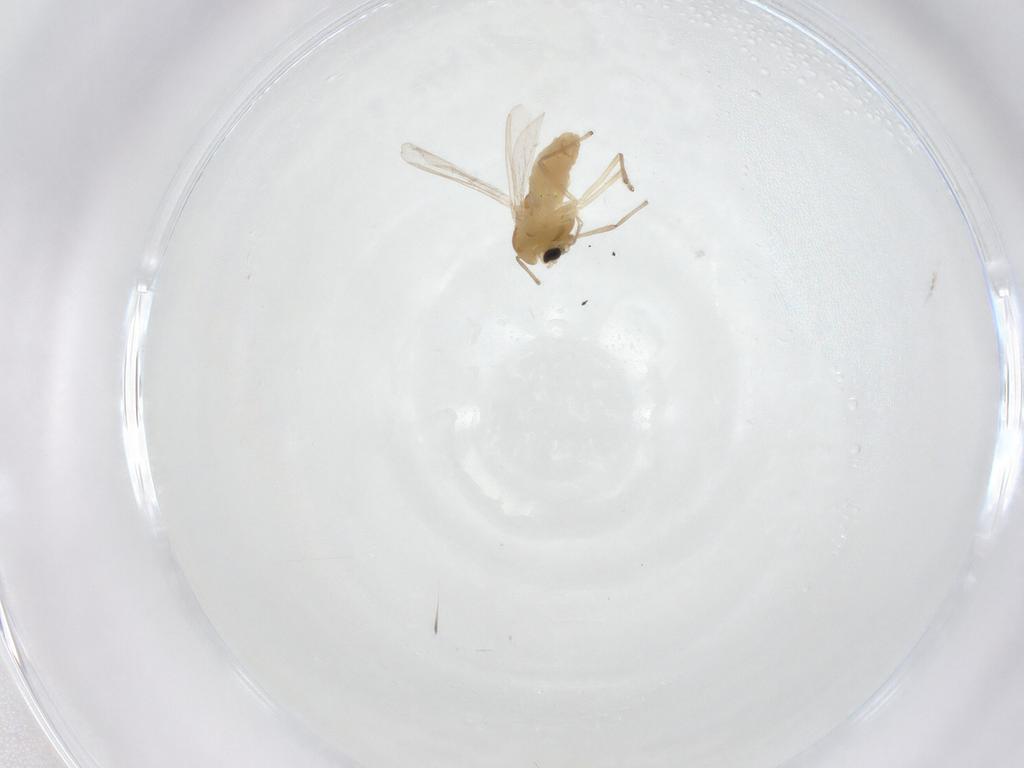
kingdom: Animalia
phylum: Arthropoda
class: Insecta
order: Diptera
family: Chironomidae
